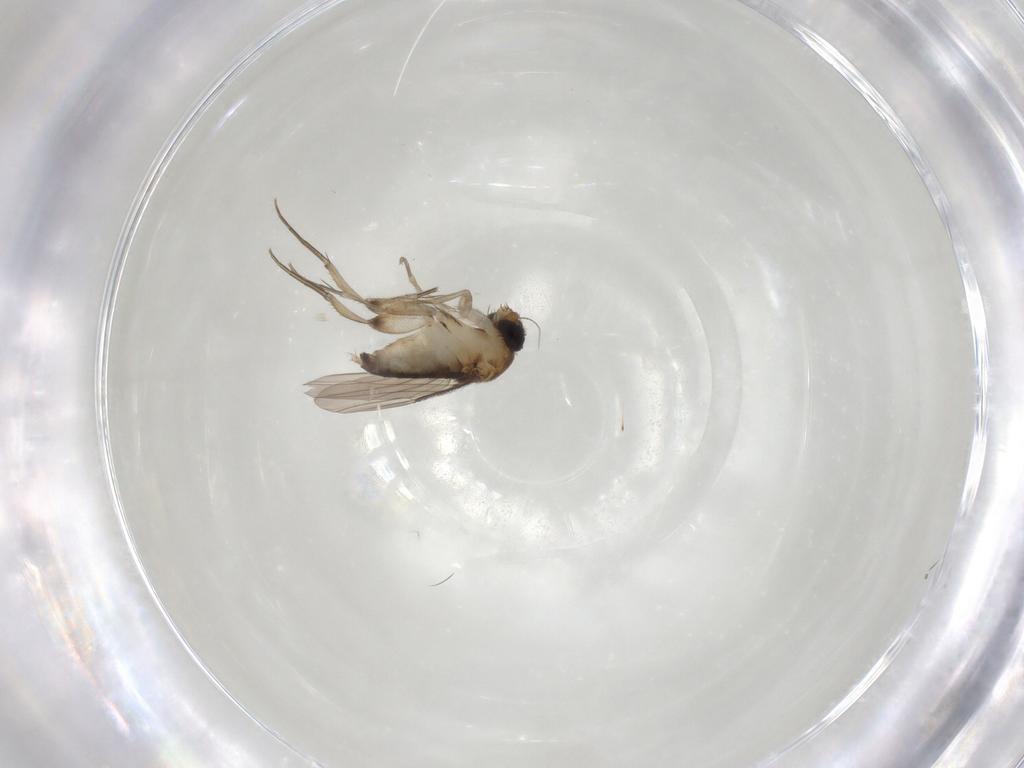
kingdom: Animalia
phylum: Arthropoda
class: Insecta
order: Diptera
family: Phoridae
